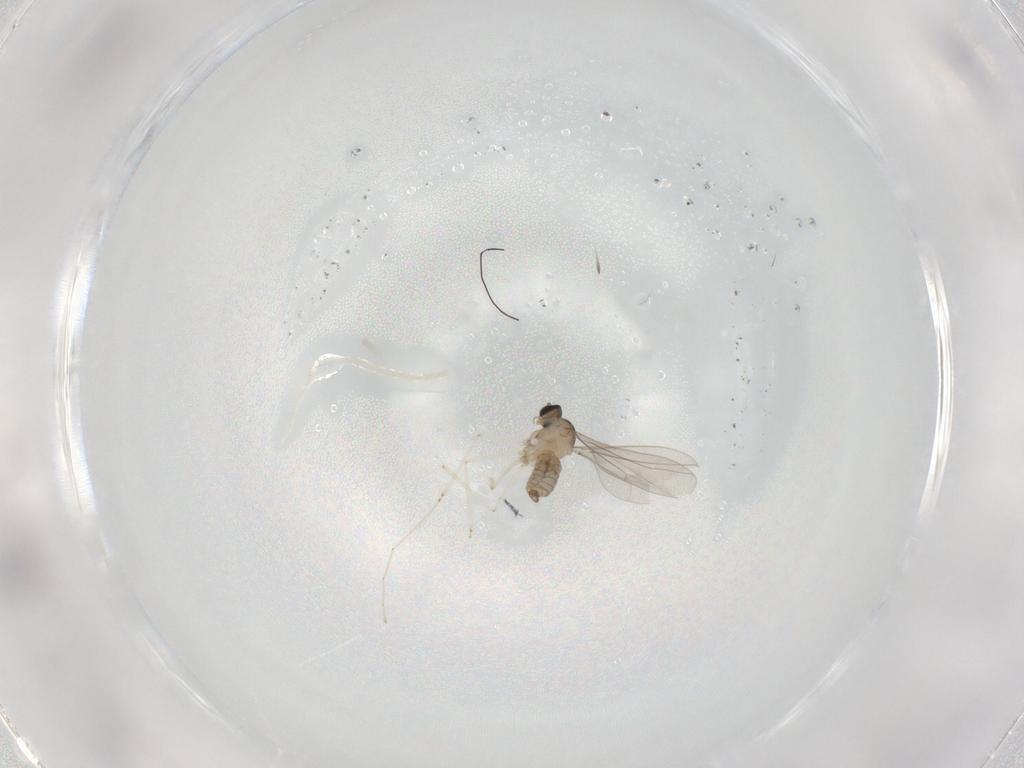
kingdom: Animalia
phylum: Arthropoda
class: Insecta
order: Diptera
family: Cecidomyiidae
